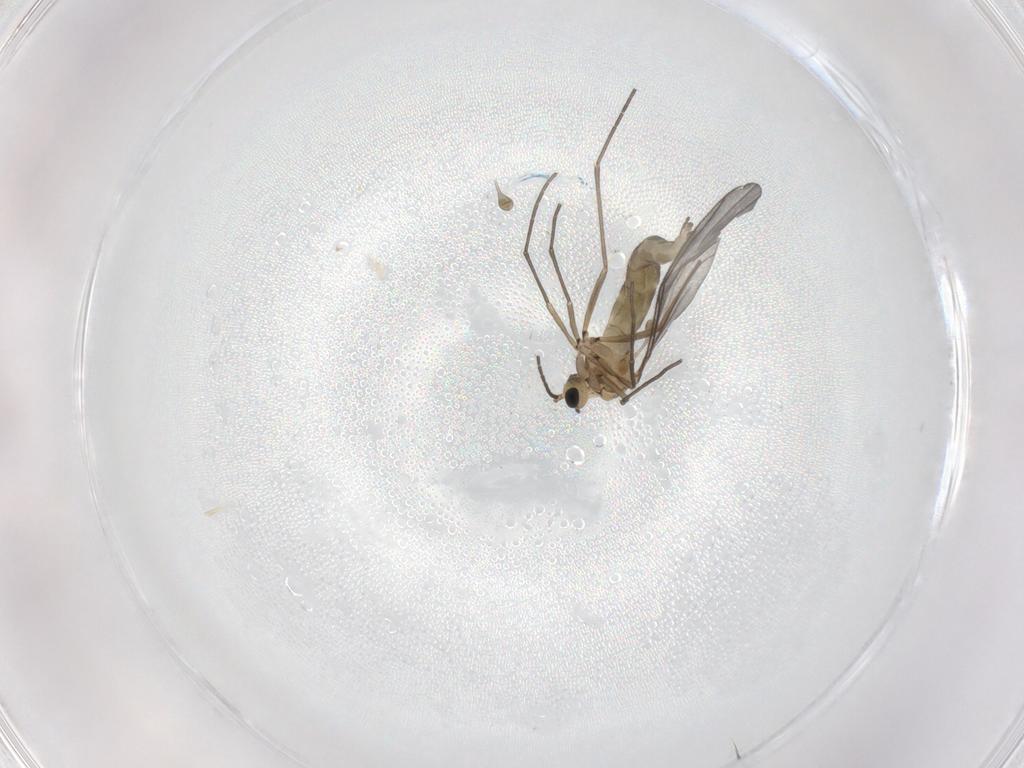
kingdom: Animalia
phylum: Arthropoda
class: Insecta
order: Diptera
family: Sciaridae
